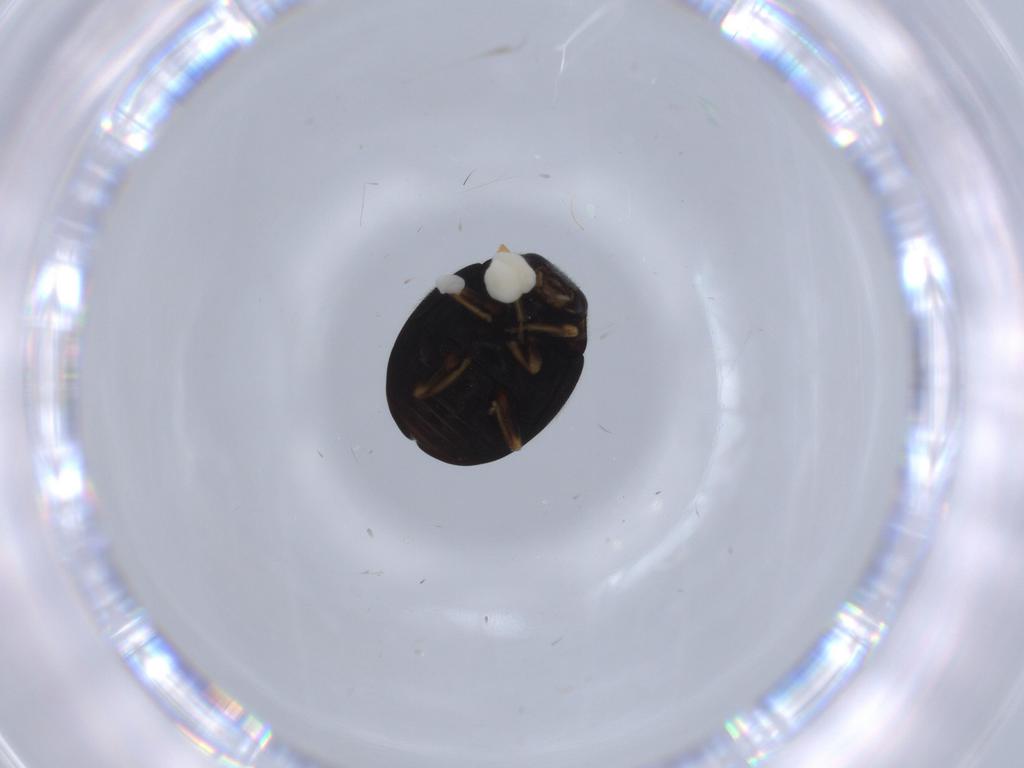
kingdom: Animalia
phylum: Arthropoda
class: Insecta
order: Coleoptera
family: Coccinellidae
